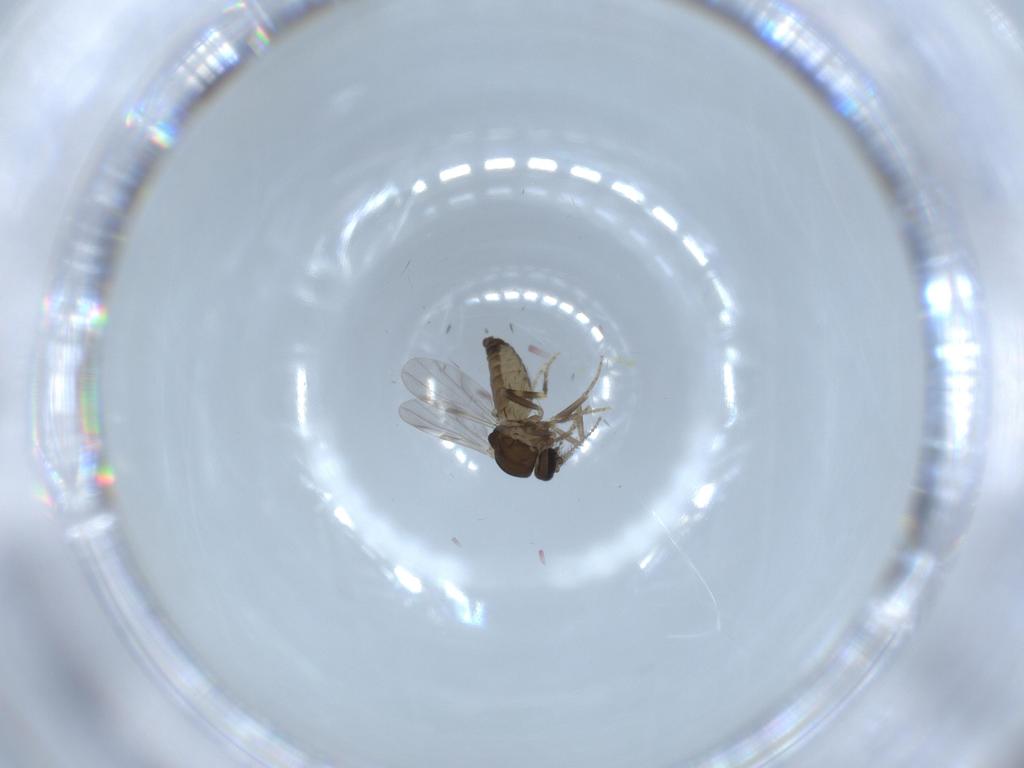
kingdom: Animalia
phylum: Arthropoda
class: Insecta
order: Diptera
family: Ceratopogonidae
